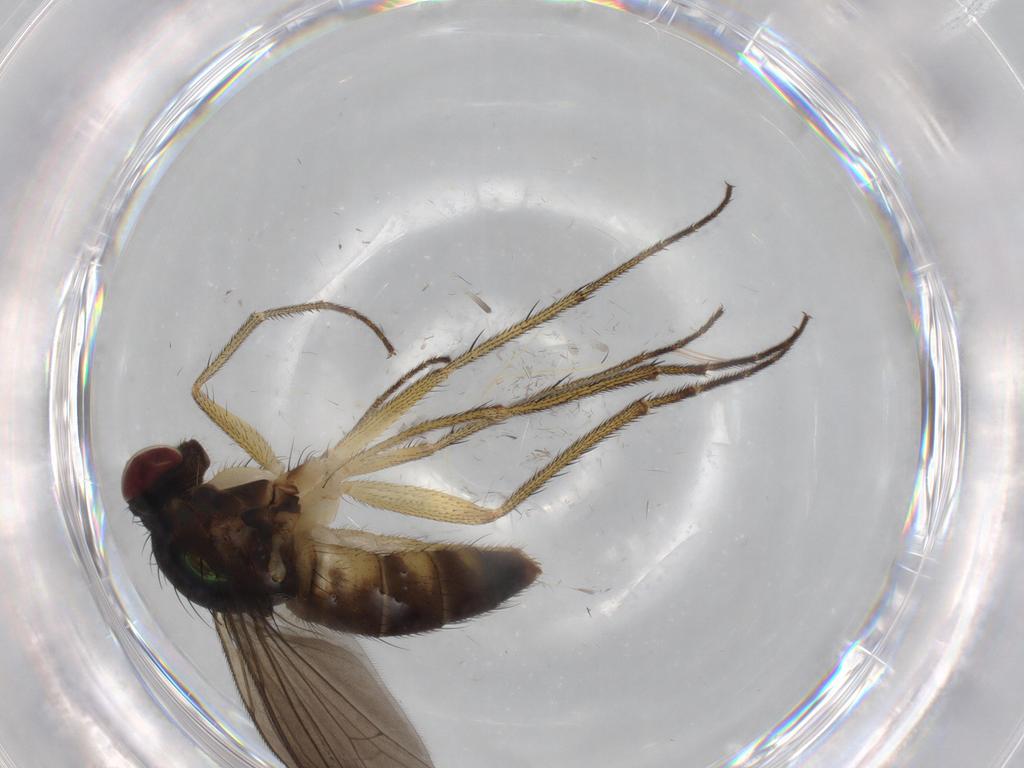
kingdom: Animalia
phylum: Arthropoda
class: Insecta
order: Diptera
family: Dolichopodidae
